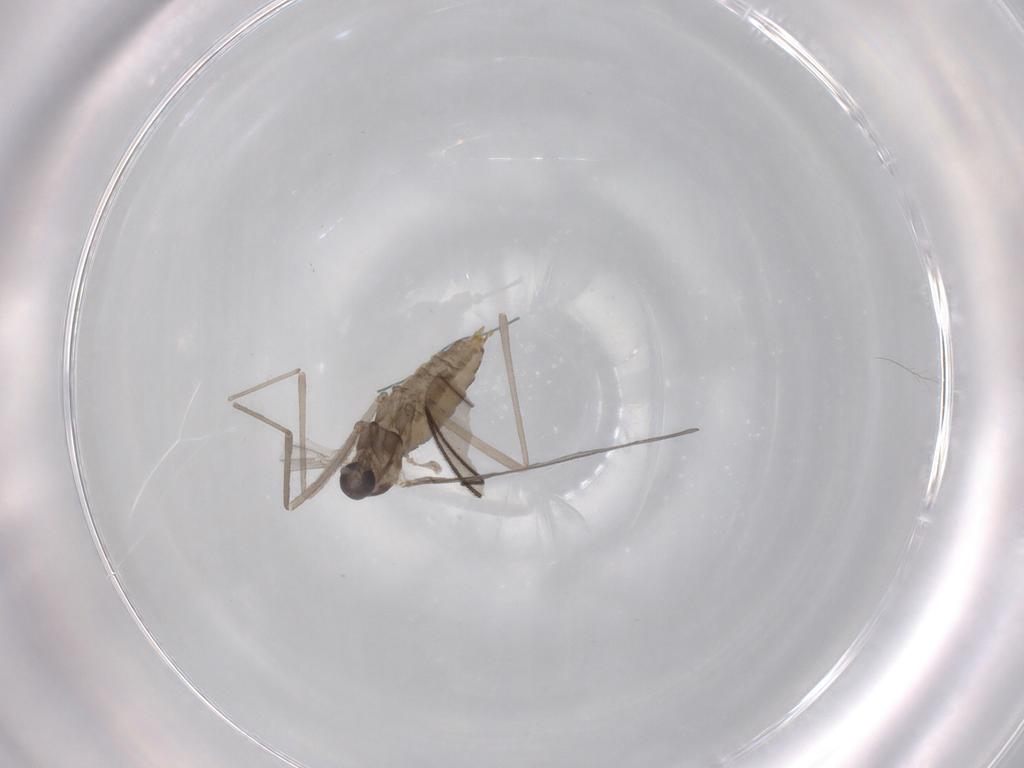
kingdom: Animalia
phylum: Arthropoda
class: Insecta
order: Diptera
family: Sciaridae
